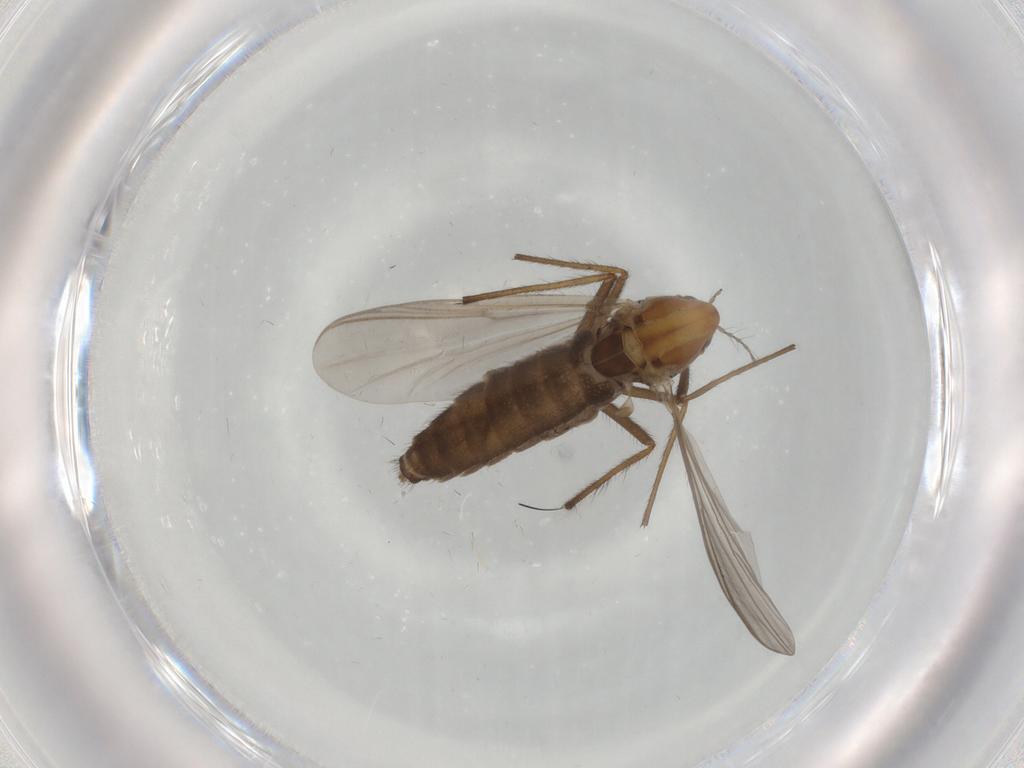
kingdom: Animalia
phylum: Arthropoda
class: Insecta
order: Diptera
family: Chironomidae
